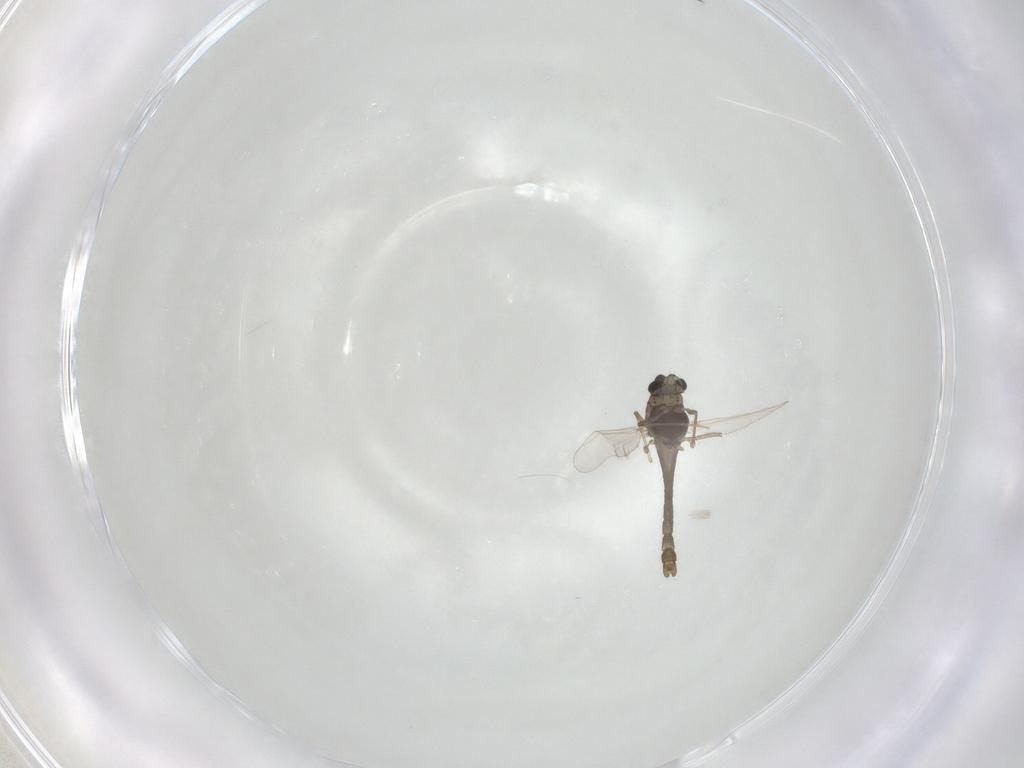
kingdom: Animalia
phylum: Arthropoda
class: Insecta
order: Diptera
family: Chironomidae
